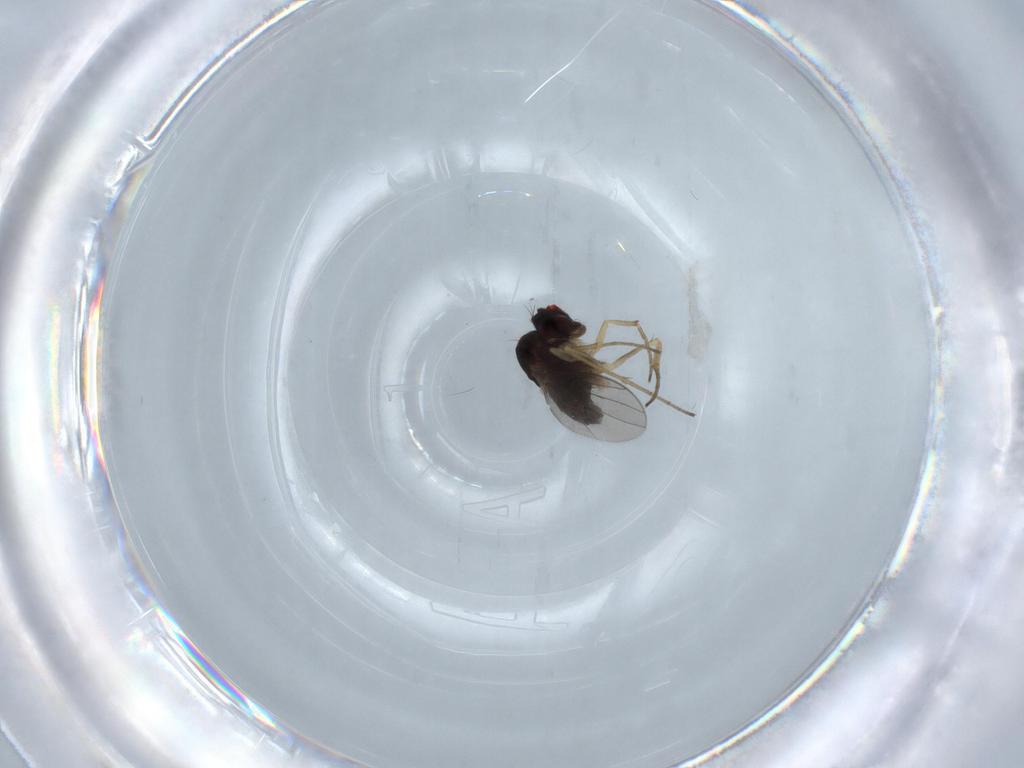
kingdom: Animalia
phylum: Arthropoda
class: Insecta
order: Diptera
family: Dolichopodidae
